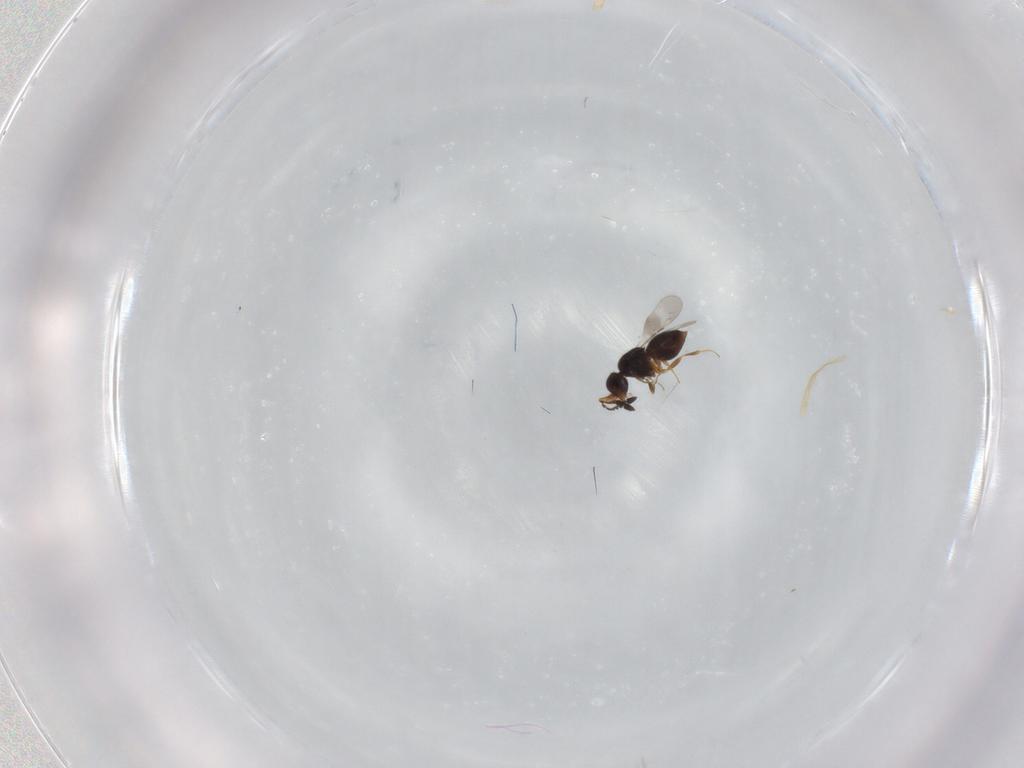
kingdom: Animalia
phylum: Arthropoda
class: Insecta
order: Hymenoptera
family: Ceraphronidae
